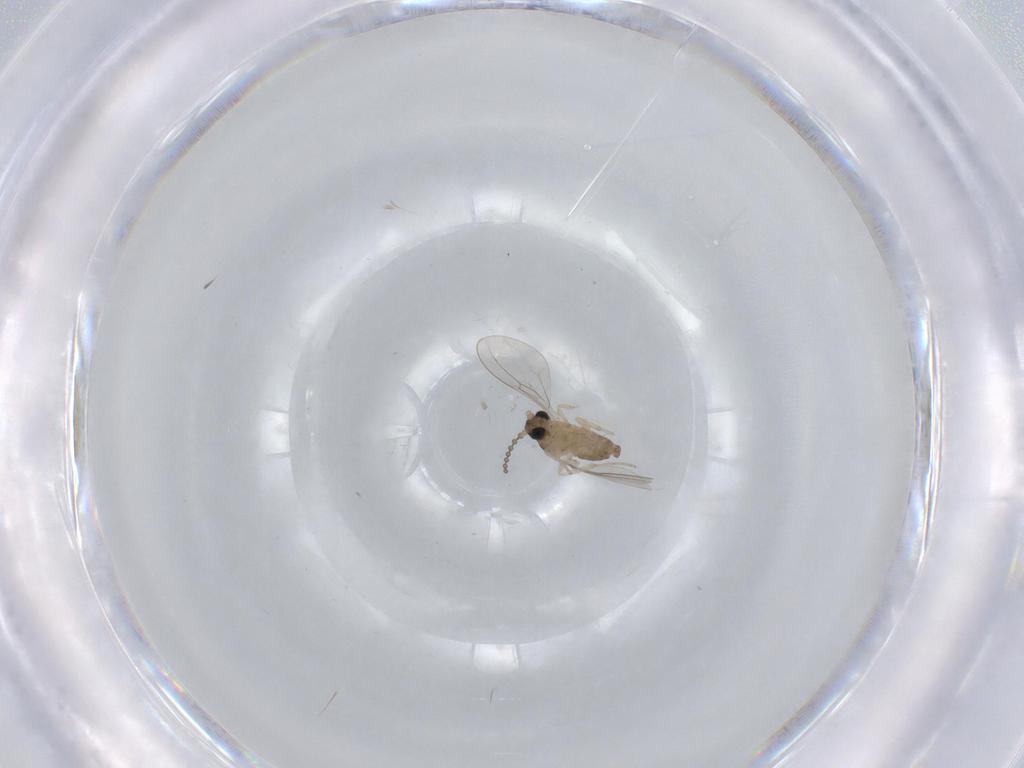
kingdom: Animalia
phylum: Arthropoda
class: Insecta
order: Diptera
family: Cecidomyiidae
